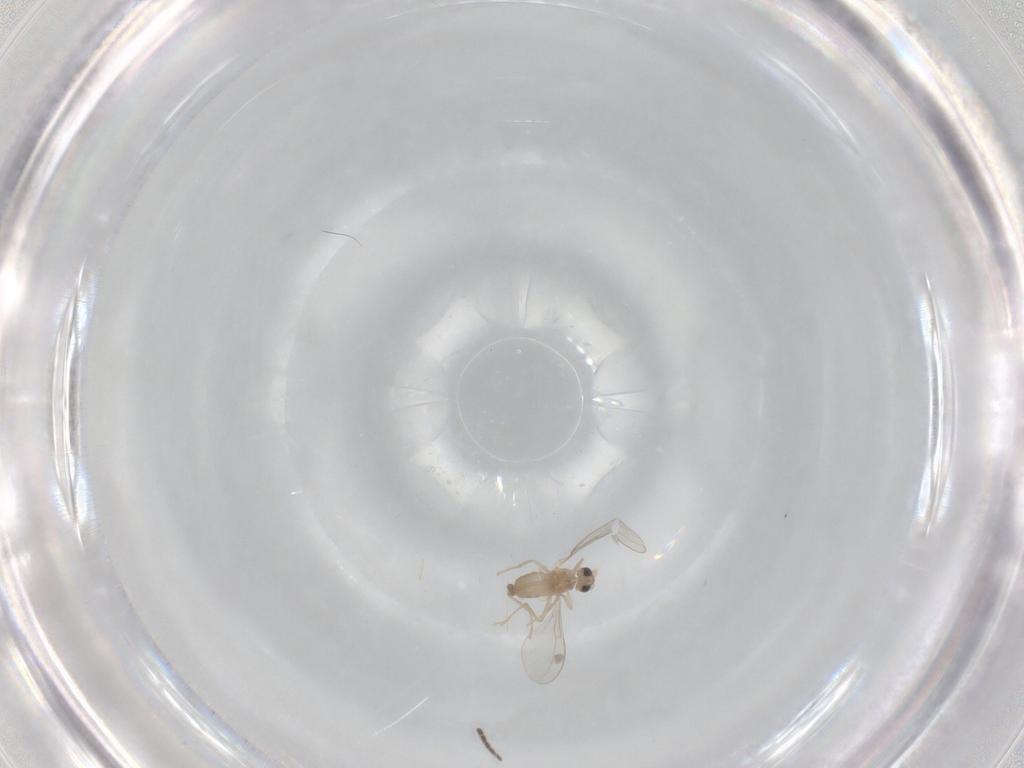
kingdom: Animalia
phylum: Arthropoda
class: Insecta
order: Diptera
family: Cecidomyiidae
